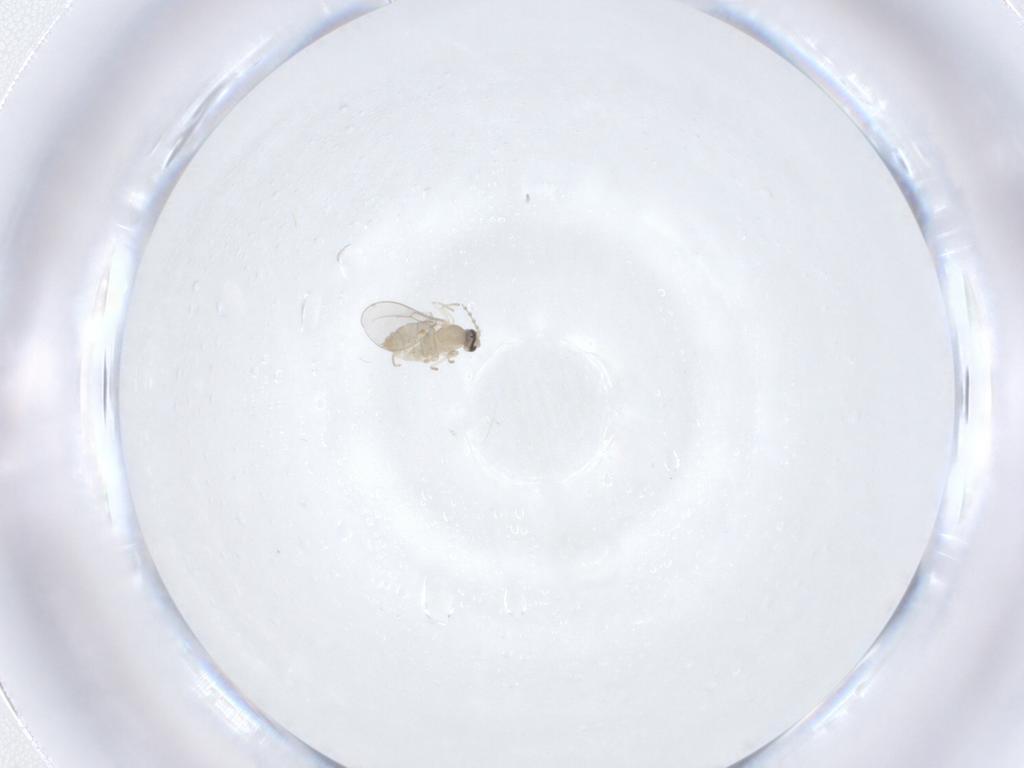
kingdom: Animalia
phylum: Arthropoda
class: Insecta
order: Diptera
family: Cecidomyiidae
